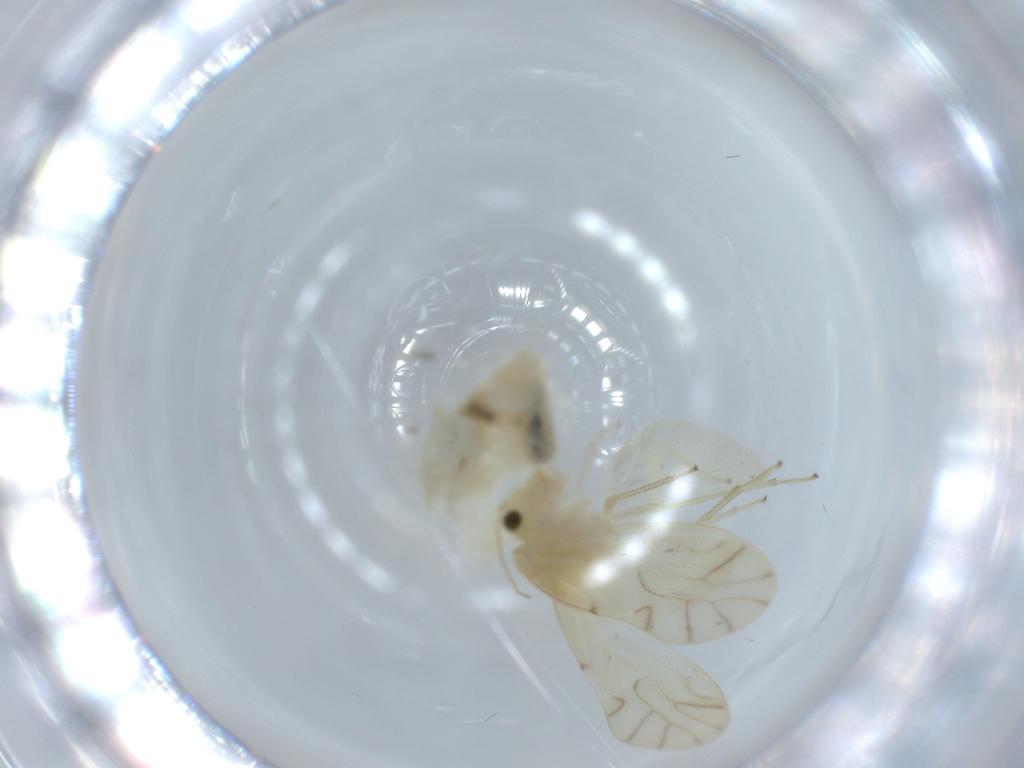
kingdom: Animalia
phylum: Arthropoda
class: Insecta
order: Psocodea
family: Caeciliusidae
